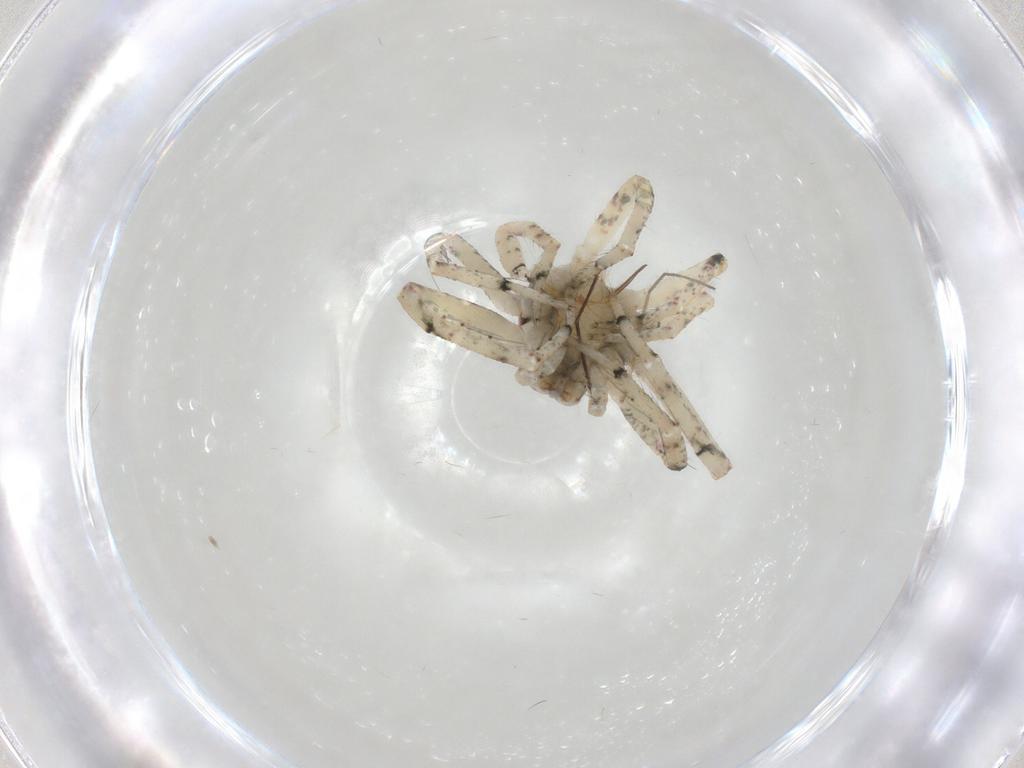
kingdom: Animalia
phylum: Arthropoda
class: Arachnida
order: Araneae
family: Thomisidae
